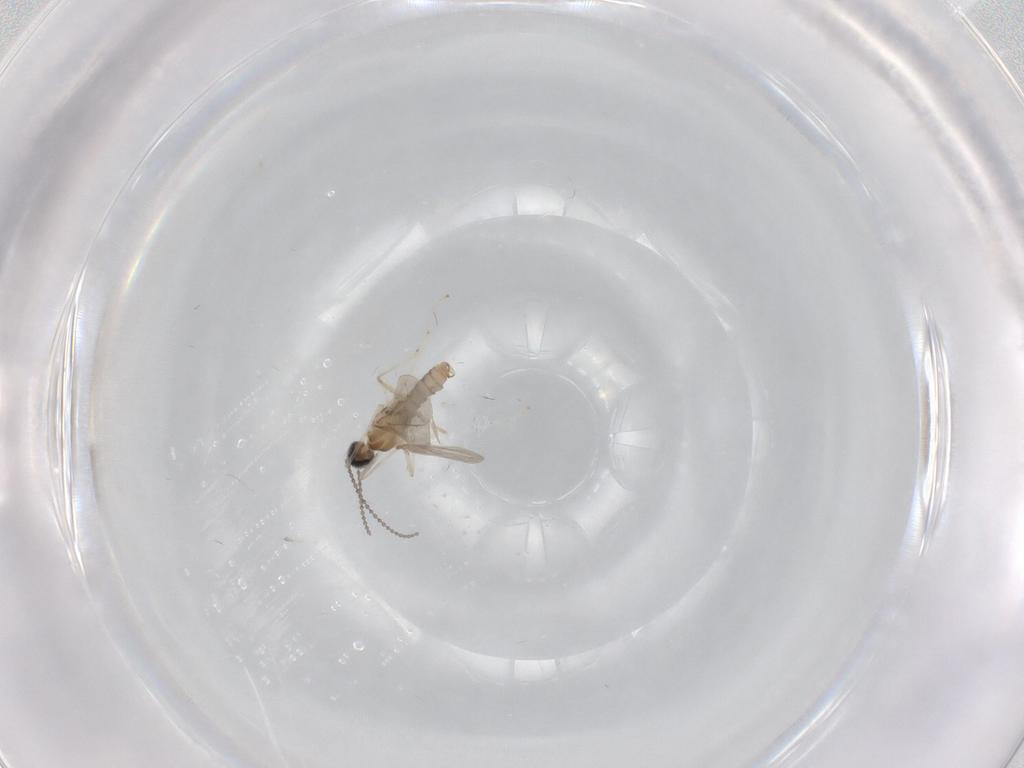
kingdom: Animalia
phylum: Arthropoda
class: Insecta
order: Diptera
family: Cecidomyiidae
